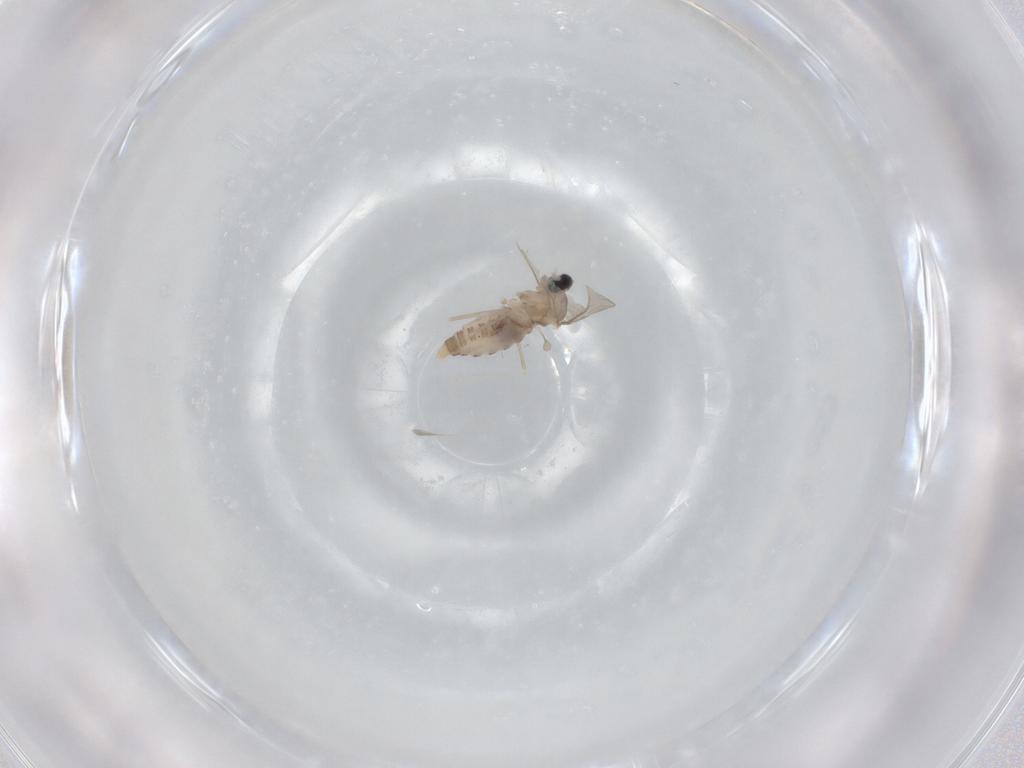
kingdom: Animalia
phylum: Arthropoda
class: Insecta
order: Diptera
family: Cecidomyiidae
